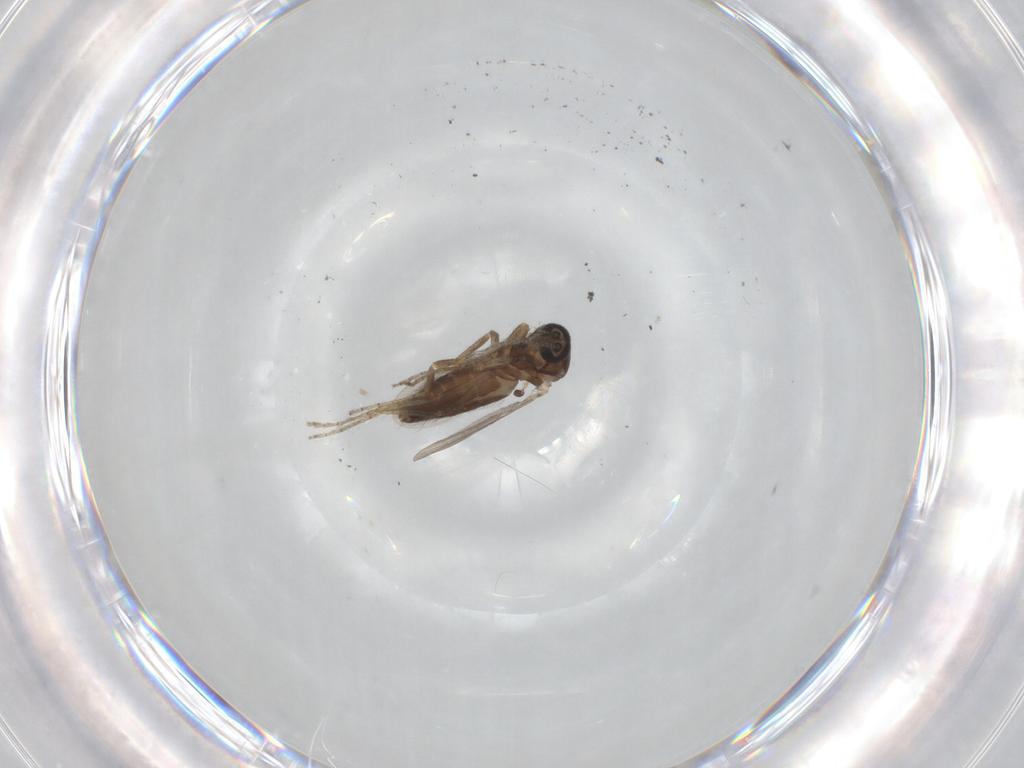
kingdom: Animalia
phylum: Arthropoda
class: Insecta
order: Diptera
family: Ceratopogonidae
